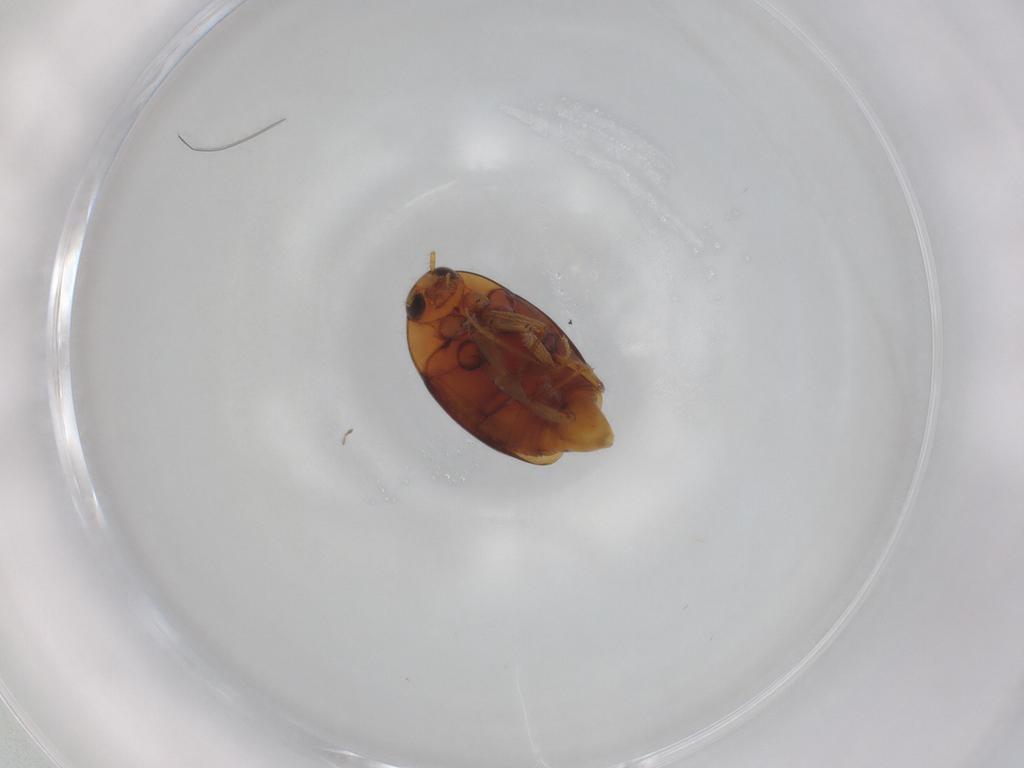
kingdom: Animalia
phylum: Arthropoda
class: Insecta
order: Coleoptera
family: Staphylinidae
